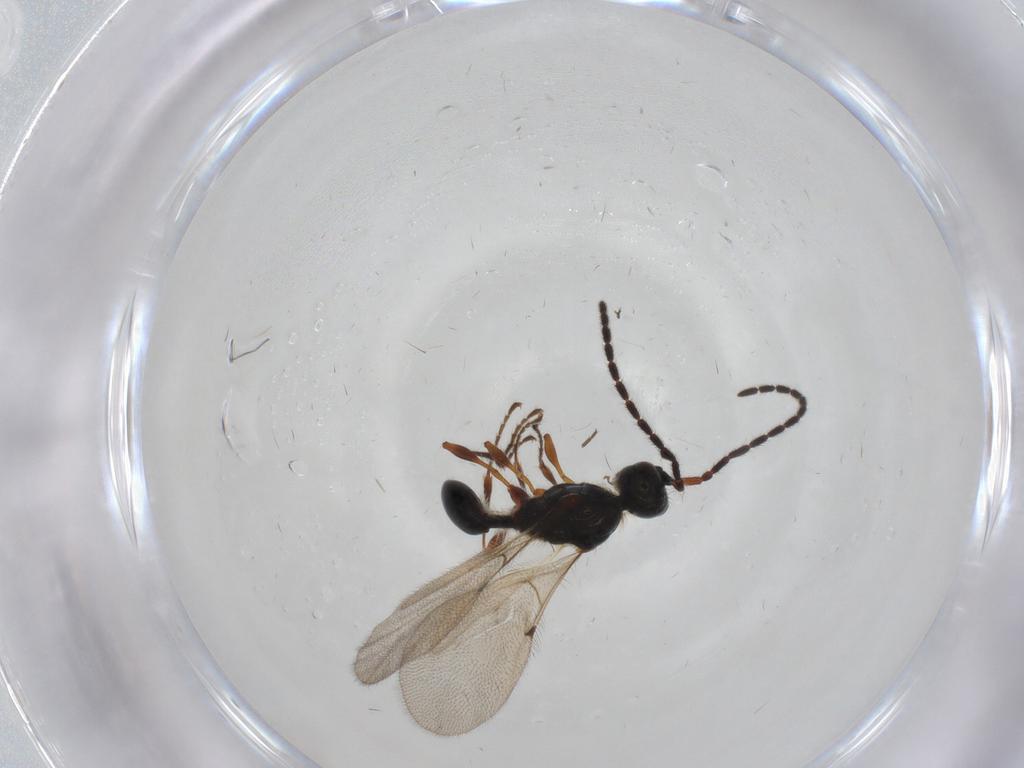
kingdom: Animalia
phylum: Arthropoda
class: Insecta
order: Hymenoptera
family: Diapriidae
